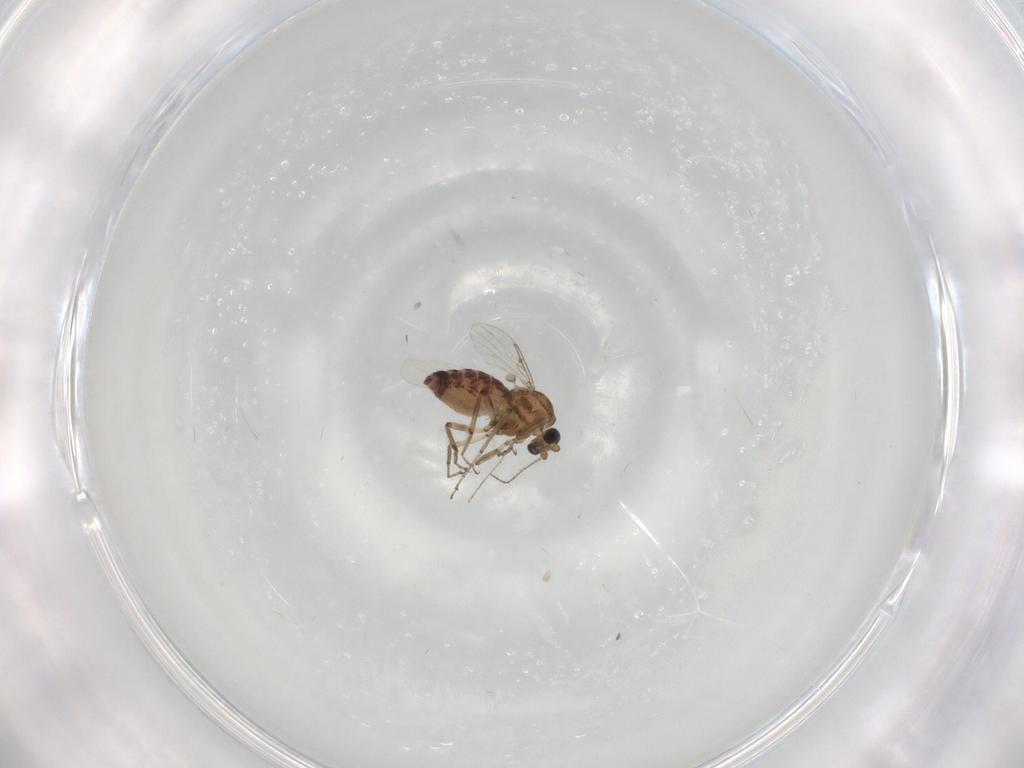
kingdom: Animalia
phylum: Arthropoda
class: Insecta
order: Diptera
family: Ceratopogonidae
